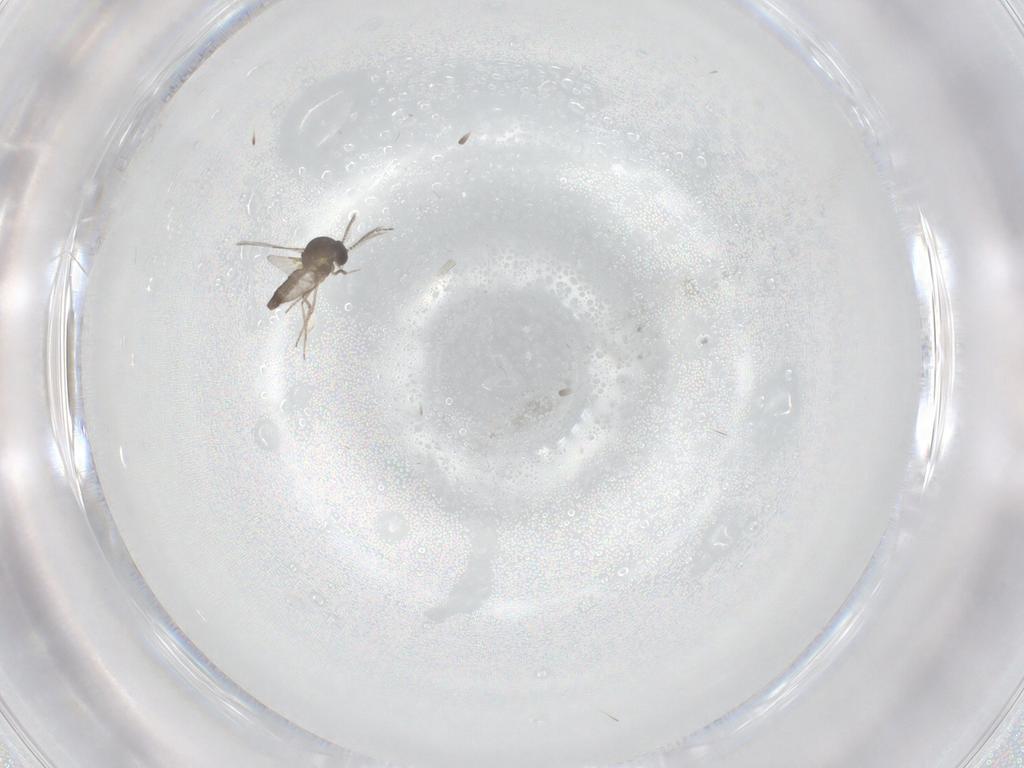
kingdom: Animalia
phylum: Arthropoda
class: Insecta
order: Diptera
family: Ceratopogonidae
